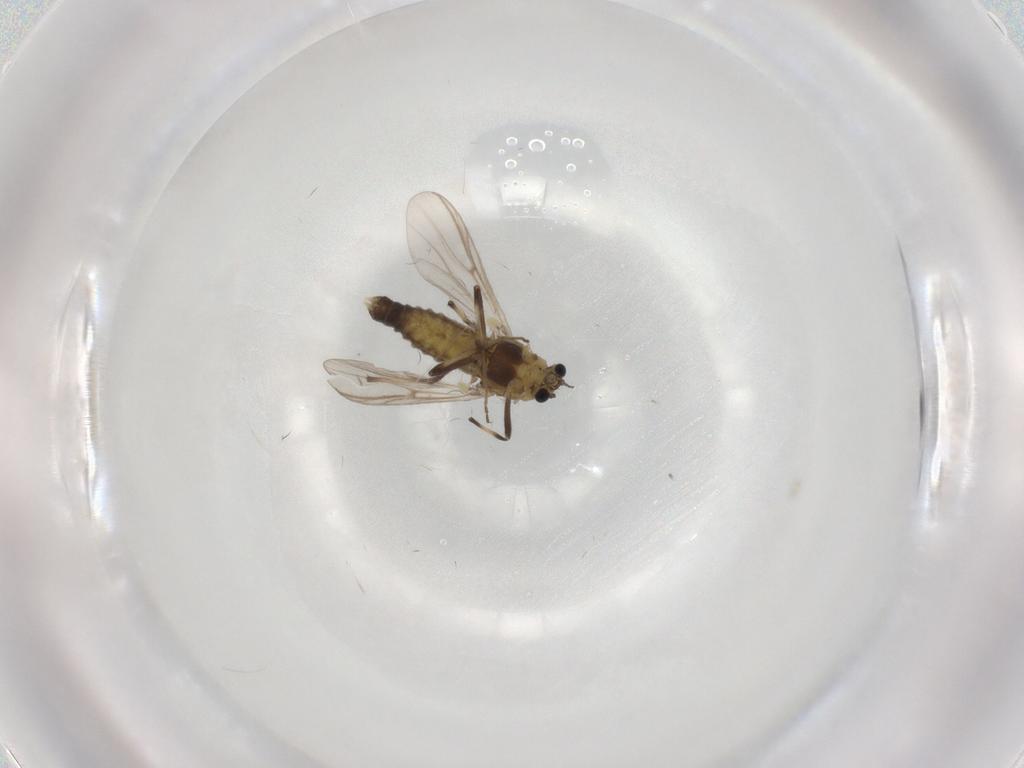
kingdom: Animalia
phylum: Arthropoda
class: Insecta
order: Diptera
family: Chironomidae
